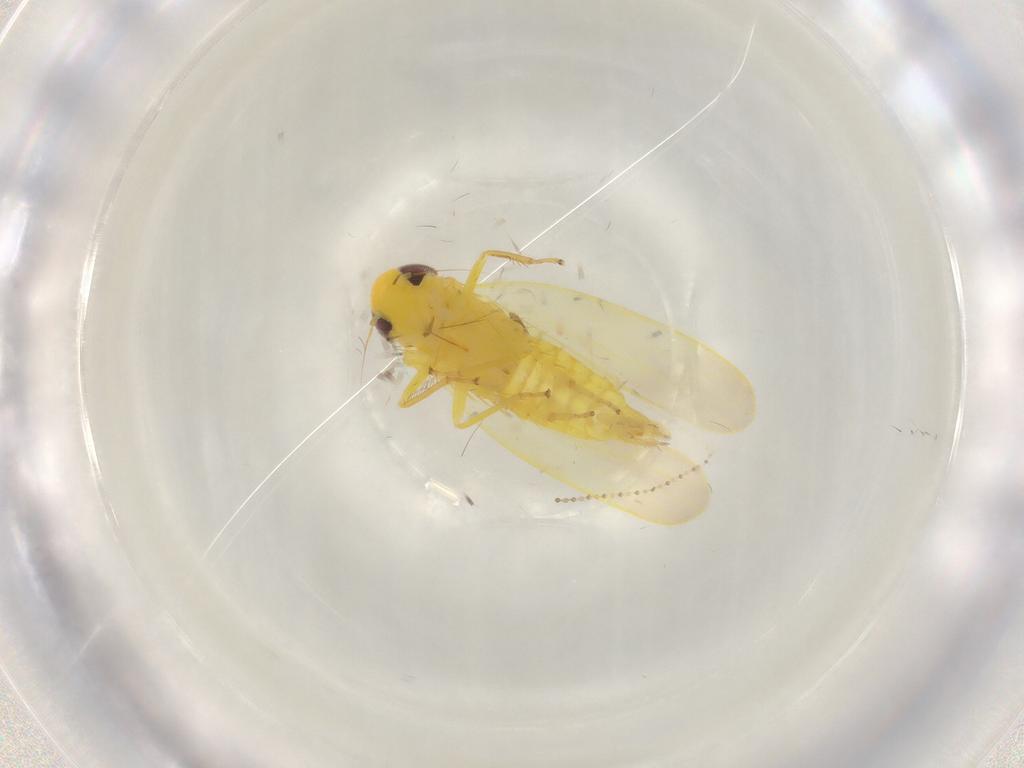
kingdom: Animalia
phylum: Arthropoda
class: Insecta
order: Hemiptera
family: Cicadellidae
